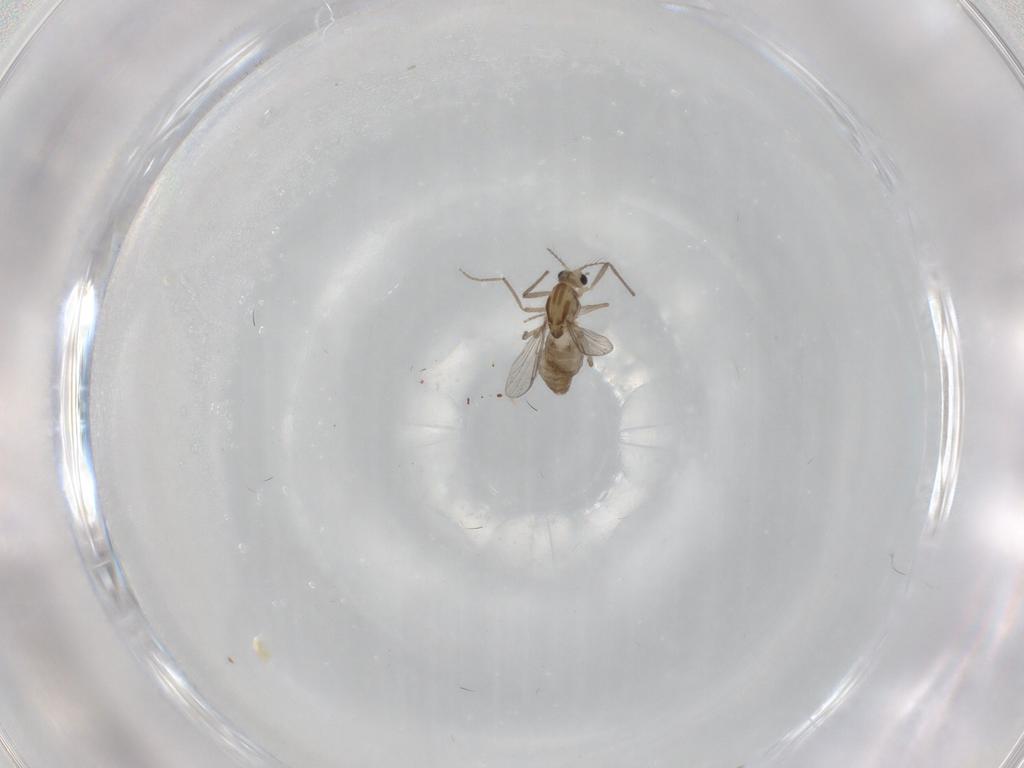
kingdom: Animalia
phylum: Arthropoda
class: Insecta
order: Diptera
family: Chironomidae
